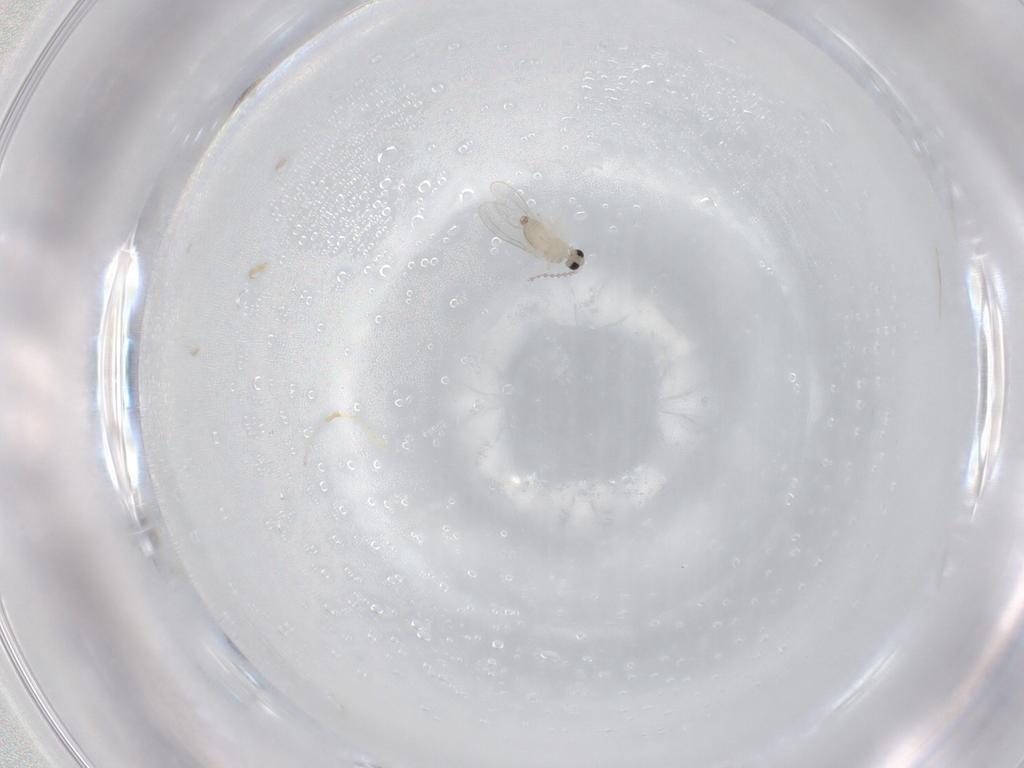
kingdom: Animalia
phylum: Arthropoda
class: Insecta
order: Diptera
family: Cecidomyiidae
